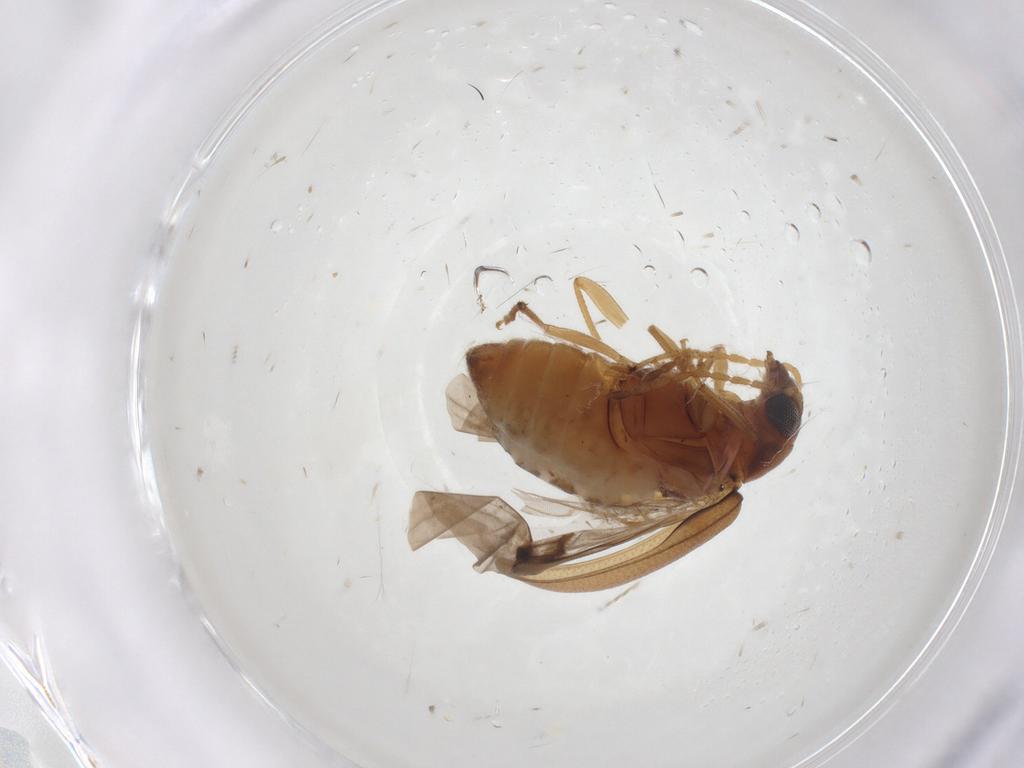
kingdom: Animalia
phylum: Arthropoda
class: Insecta
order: Coleoptera
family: Chrysomelidae
